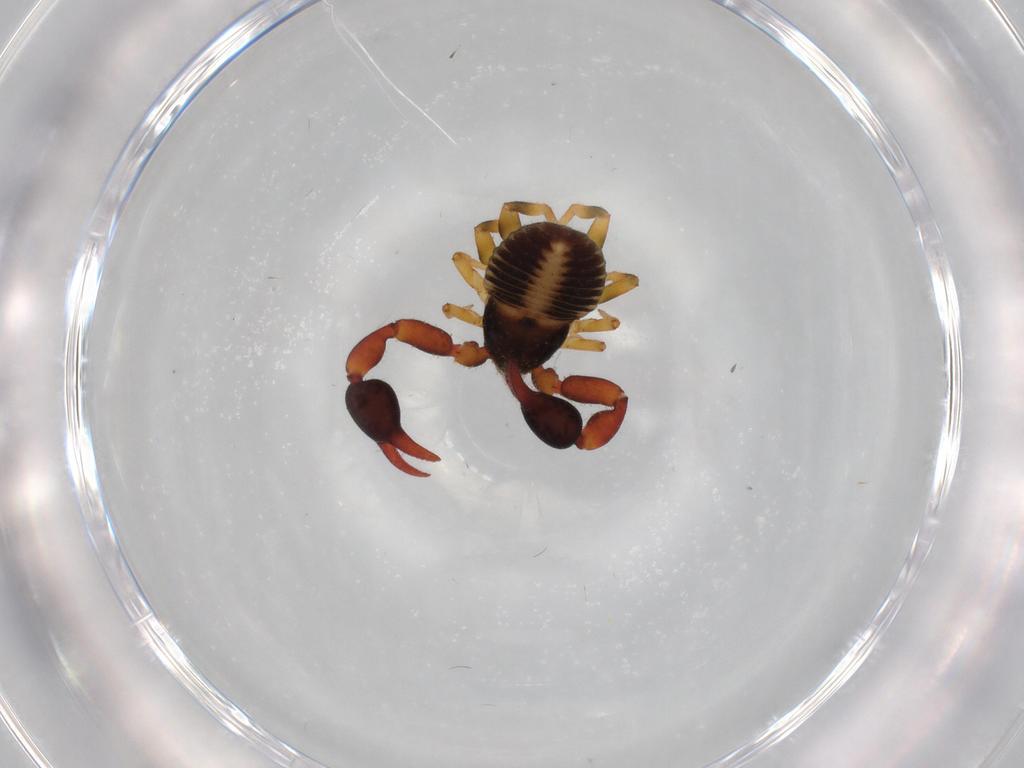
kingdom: Animalia
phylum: Arthropoda
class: Arachnida
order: Pseudoscorpiones
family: Chernetidae
